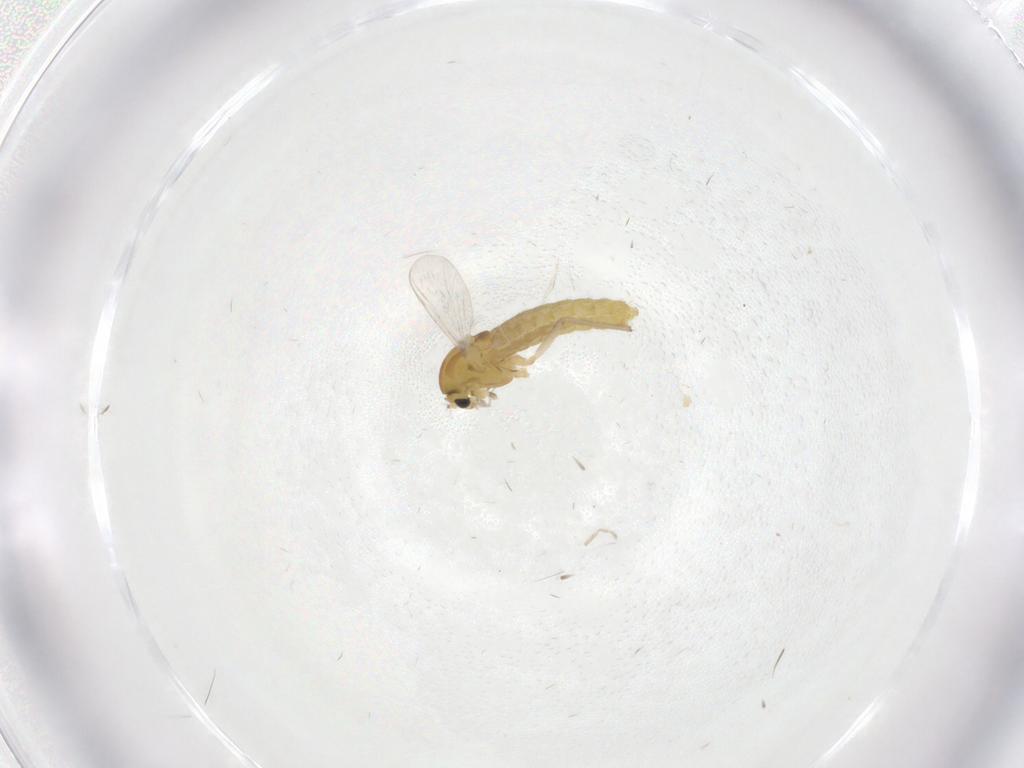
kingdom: Animalia
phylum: Arthropoda
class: Insecta
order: Diptera
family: Chironomidae
